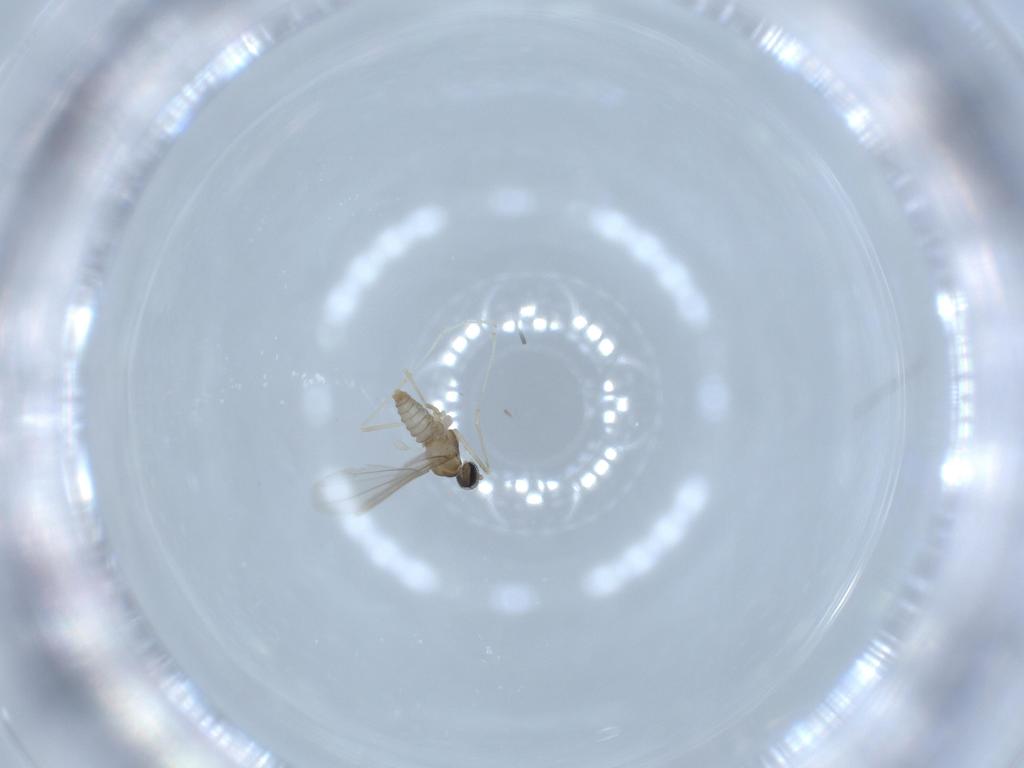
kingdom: Animalia
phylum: Arthropoda
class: Insecta
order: Diptera
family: Cecidomyiidae
